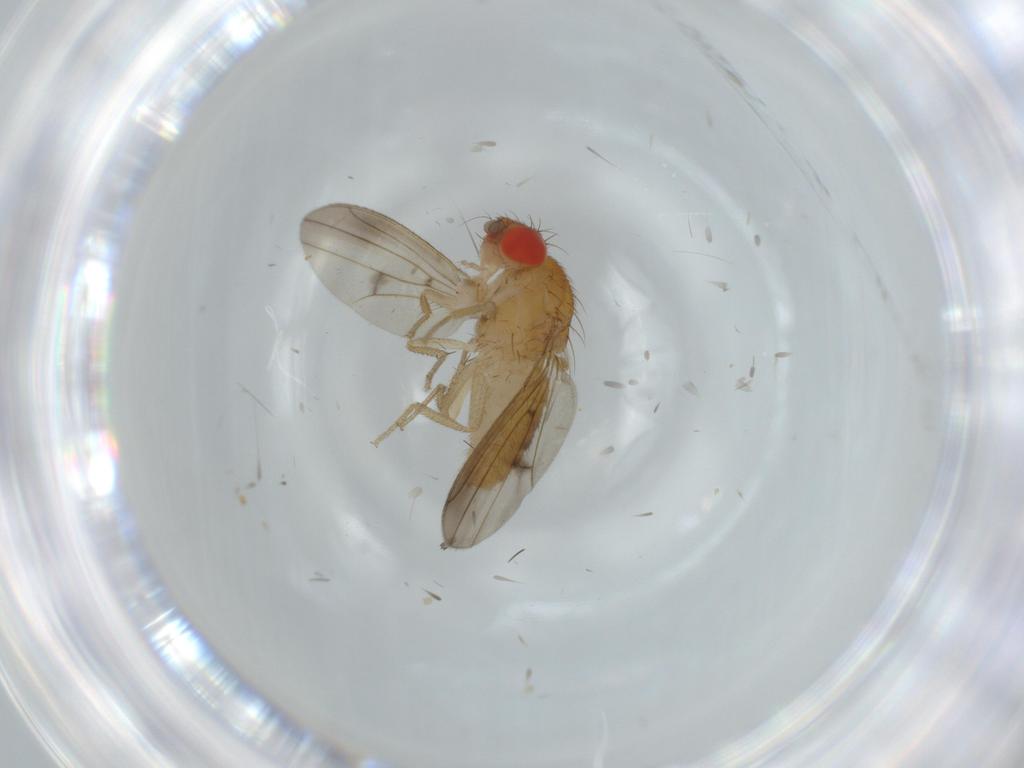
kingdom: Animalia
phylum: Arthropoda
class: Insecta
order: Diptera
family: Drosophilidae
